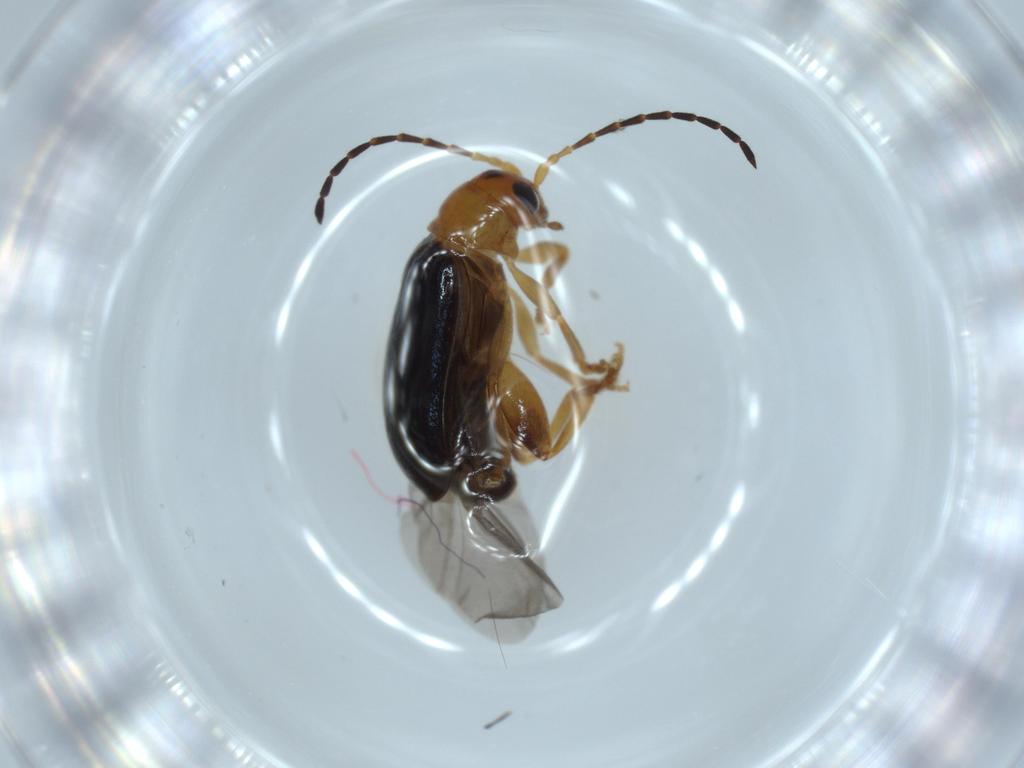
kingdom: Animalia
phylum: Arthropoda
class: Insecta
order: Coleoptera
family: Chrysomelidae
